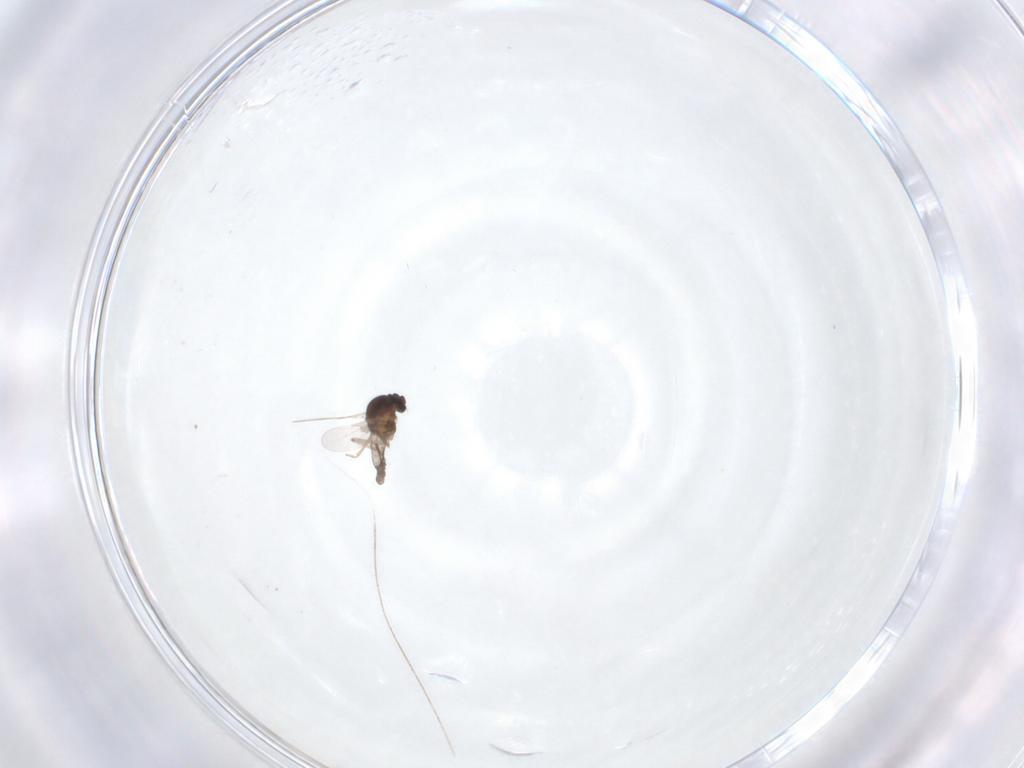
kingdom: Animalia
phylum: Arthropoda
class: Insecta
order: Diptera
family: Ceratopogonidae
